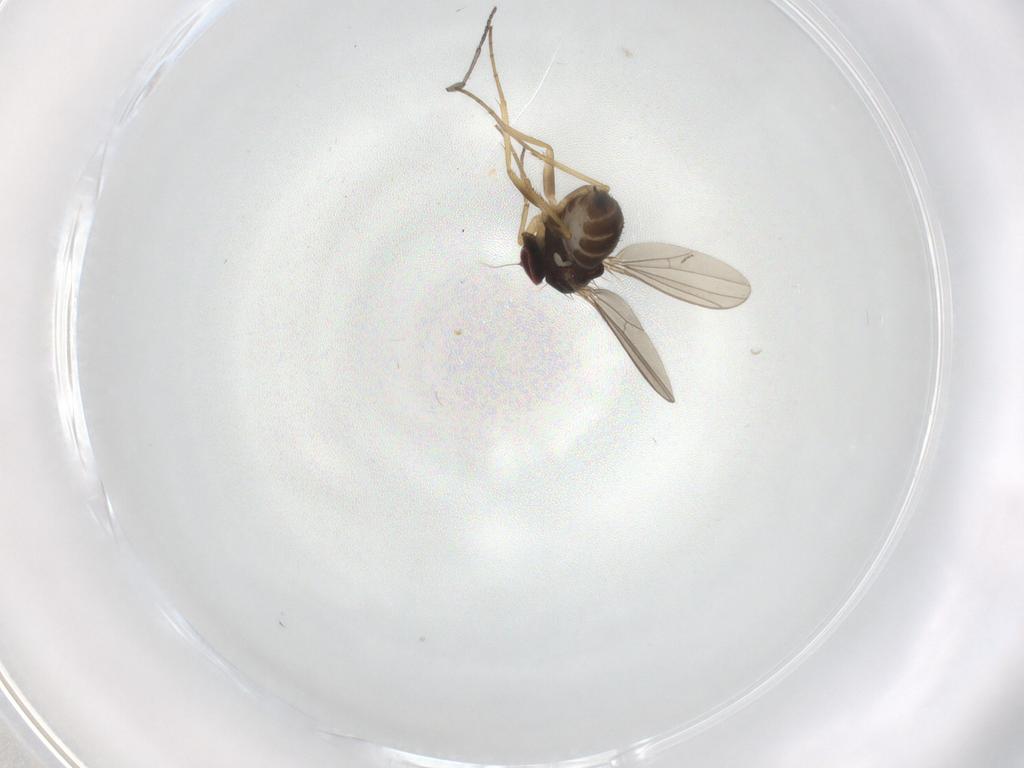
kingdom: Animalia
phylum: Arthropoda
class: Insecta
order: Diptera
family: Dolichopodidae
